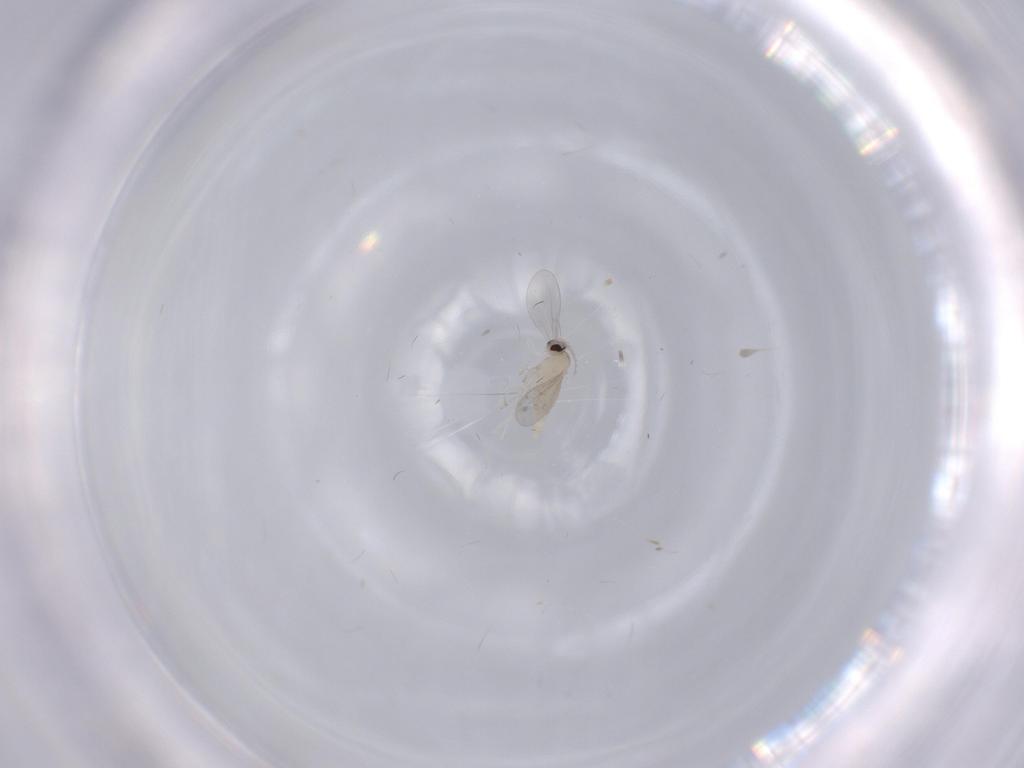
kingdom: Animalia
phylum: Arthropoda
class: Insecta
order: Diptera
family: Cecidomyiidae
